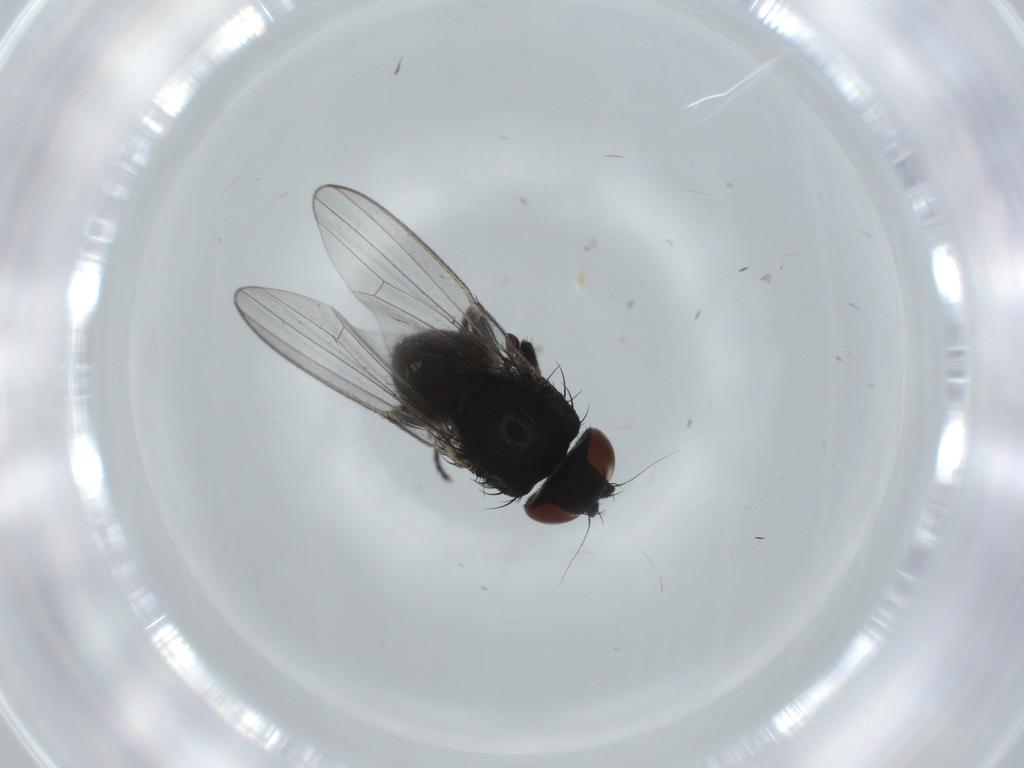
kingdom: Animalia
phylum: Arthropoda
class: Insecta
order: Diptera
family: Milichiidae
